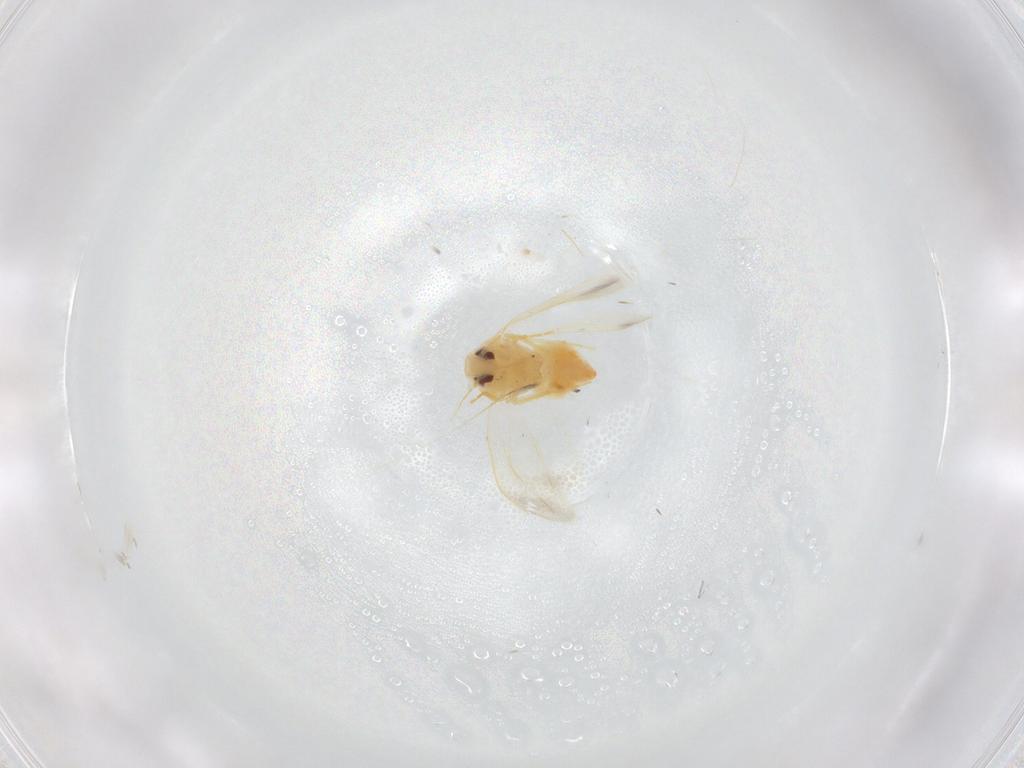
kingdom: Animalia
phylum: Arthropoda
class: Insecta
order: Hemiptera
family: Aleyrodidae
